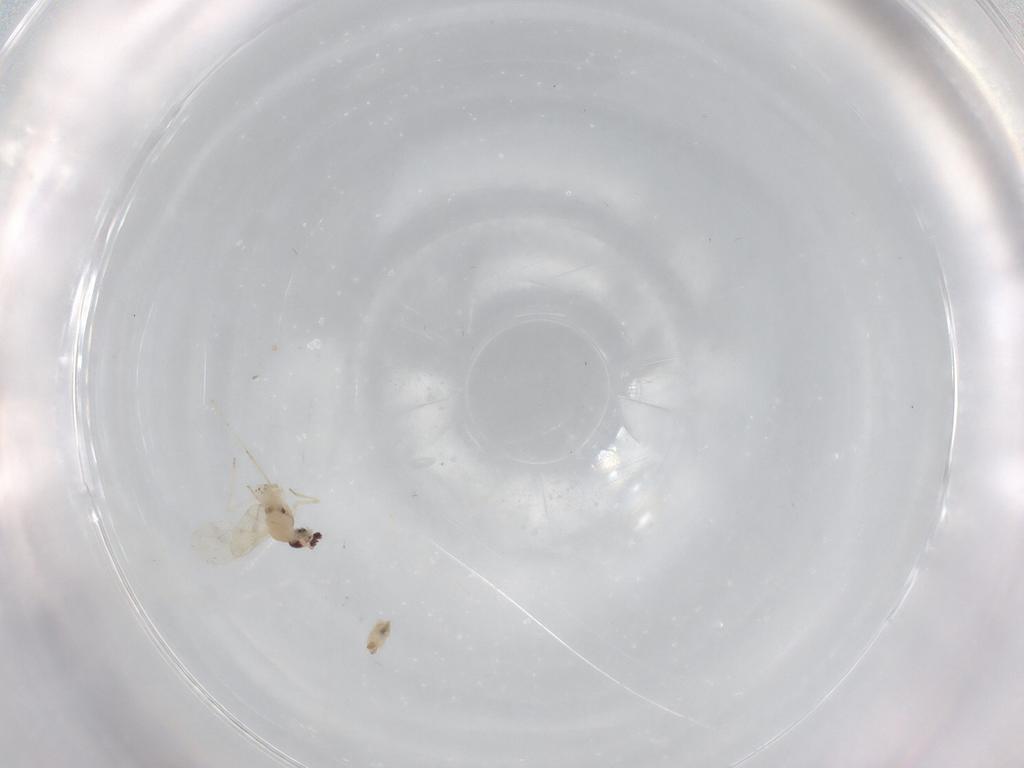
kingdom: Animalia
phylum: Arthropoda
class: Insecta
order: Diptera
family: Cecidomyiidae
